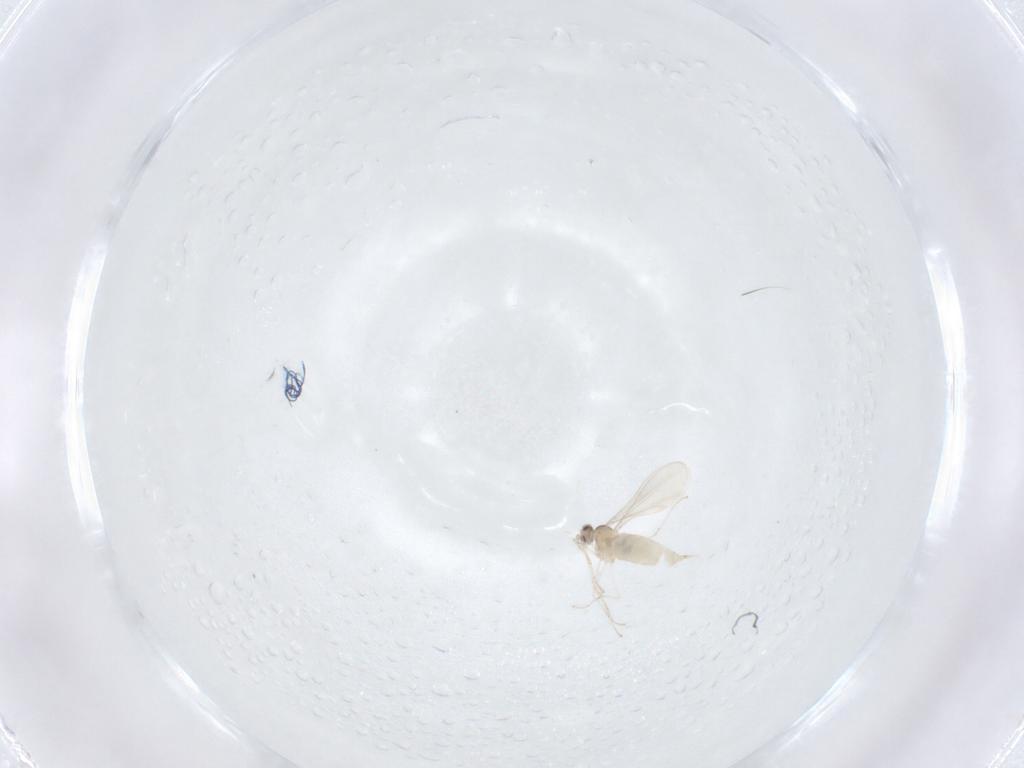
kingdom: Animalia
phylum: Arthropoda
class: Insecta
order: Diptera
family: Cecidomyiidae
